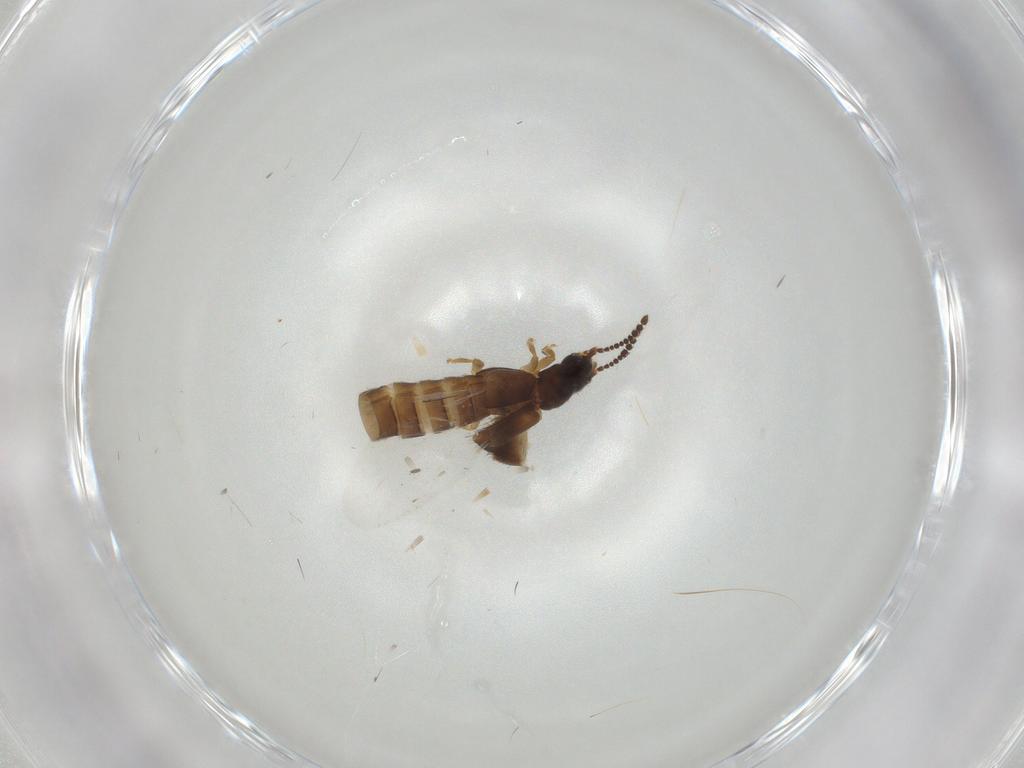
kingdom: Animalia
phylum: Arthropoda
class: Insecta
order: Coleoptera
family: Staphylinidae
